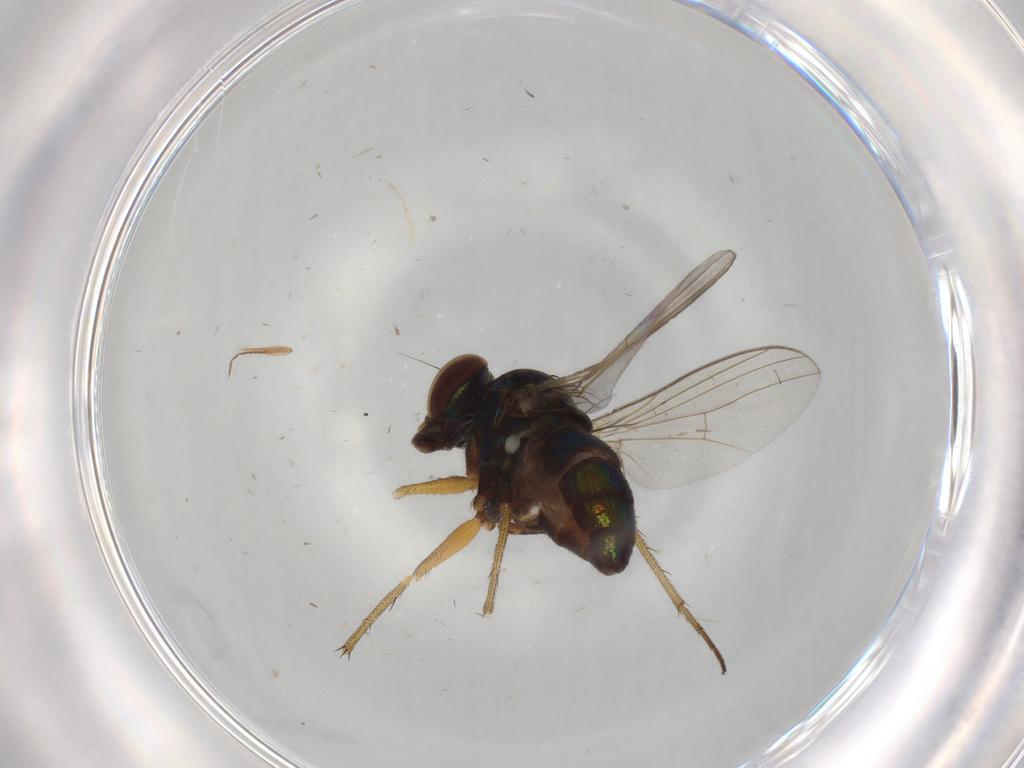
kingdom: Animalia
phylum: Arthropoda
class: Insecta
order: Diptera
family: Ceratopogonidae
